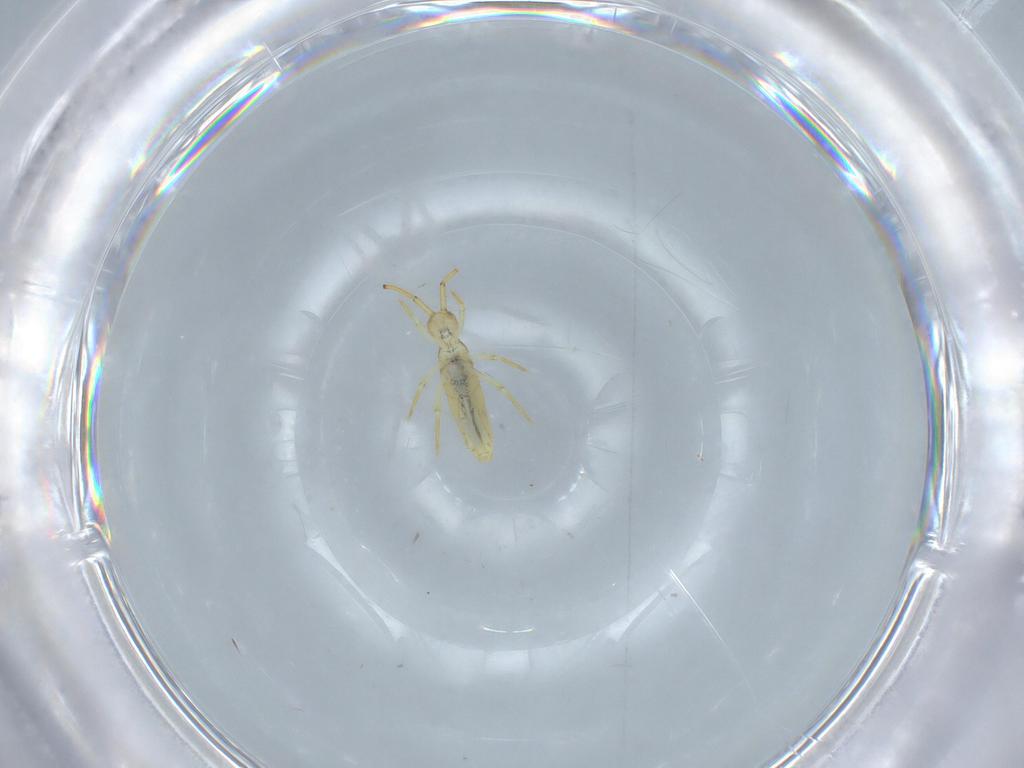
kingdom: Animalia
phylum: Arthropoda
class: Collembola
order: Entomobryomorpha
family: Paronellidae
